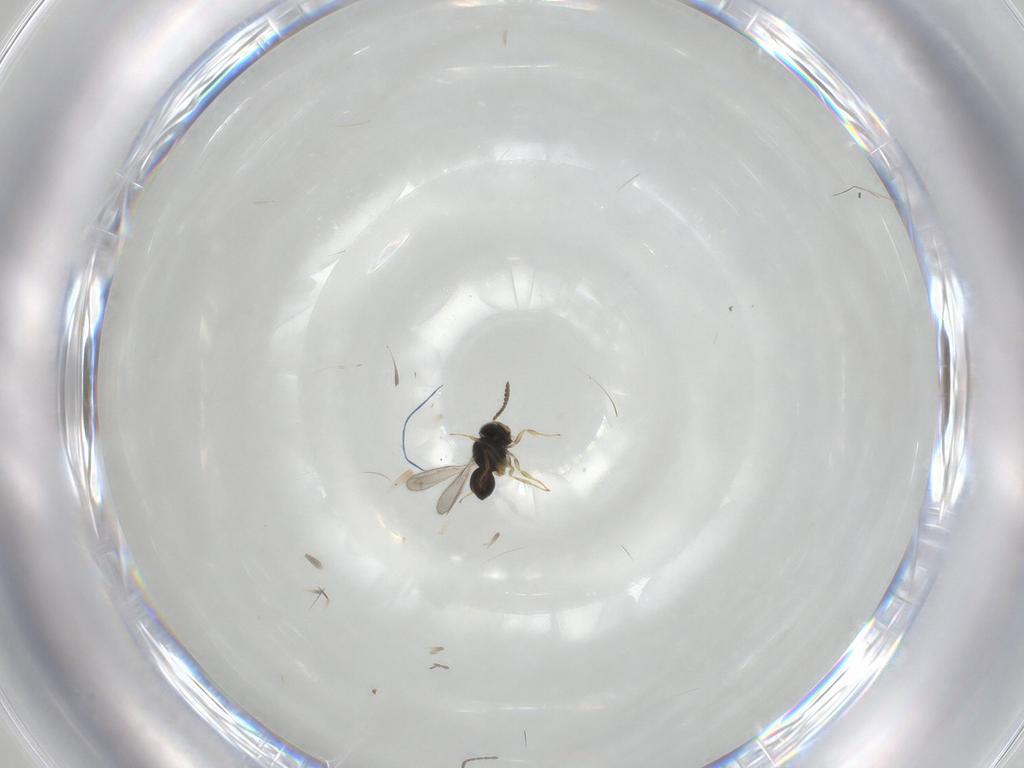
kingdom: Animalia
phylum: Arthropoda
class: Insecta
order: Hymenoptera
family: Scelionidae
